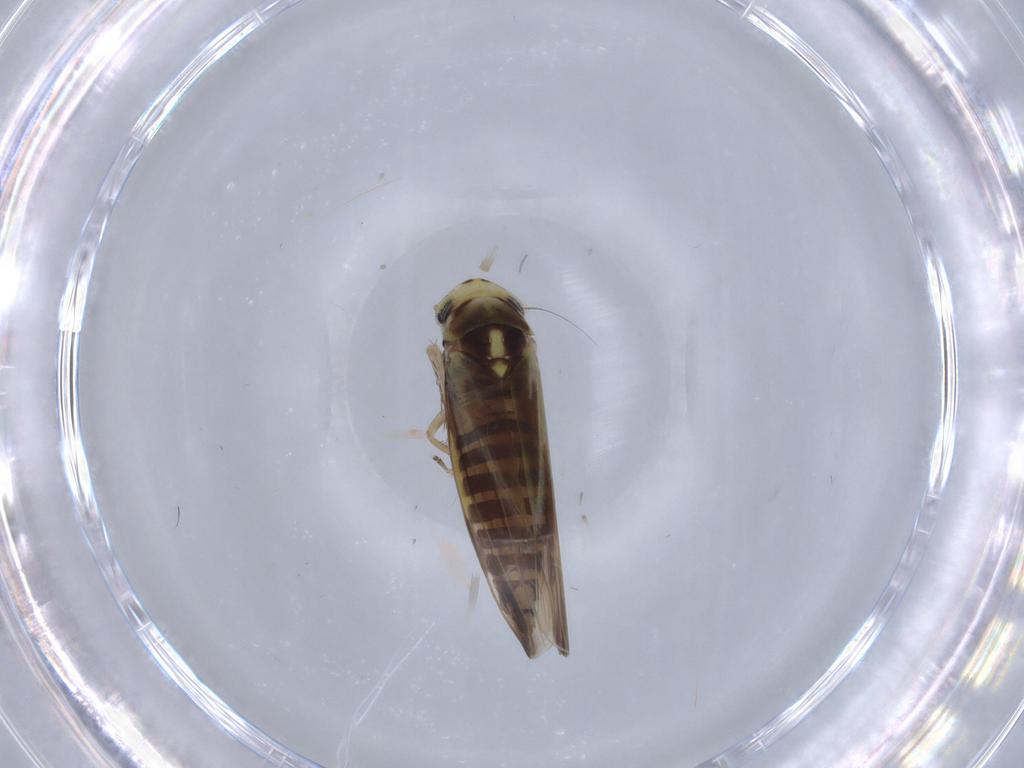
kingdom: Animalia
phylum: Arthropoda
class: Insecta
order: Hemiptera
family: Cicadellidae
